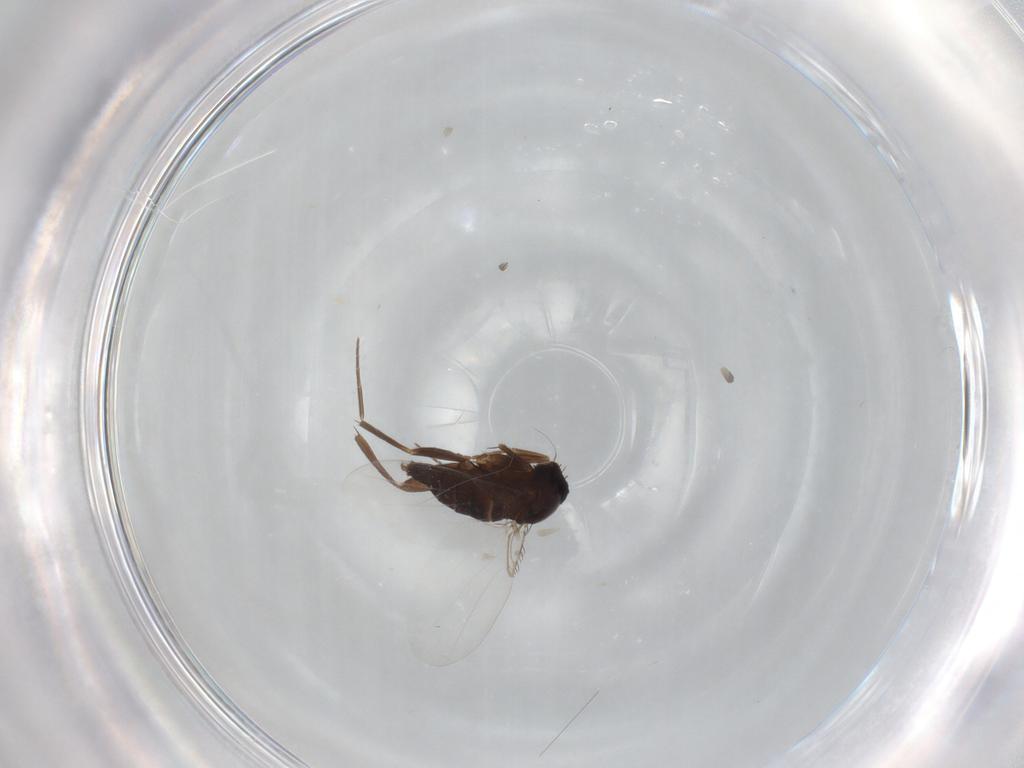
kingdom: Animalia
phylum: Arthropoda
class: Insecta
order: Diptera
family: Phoridae
